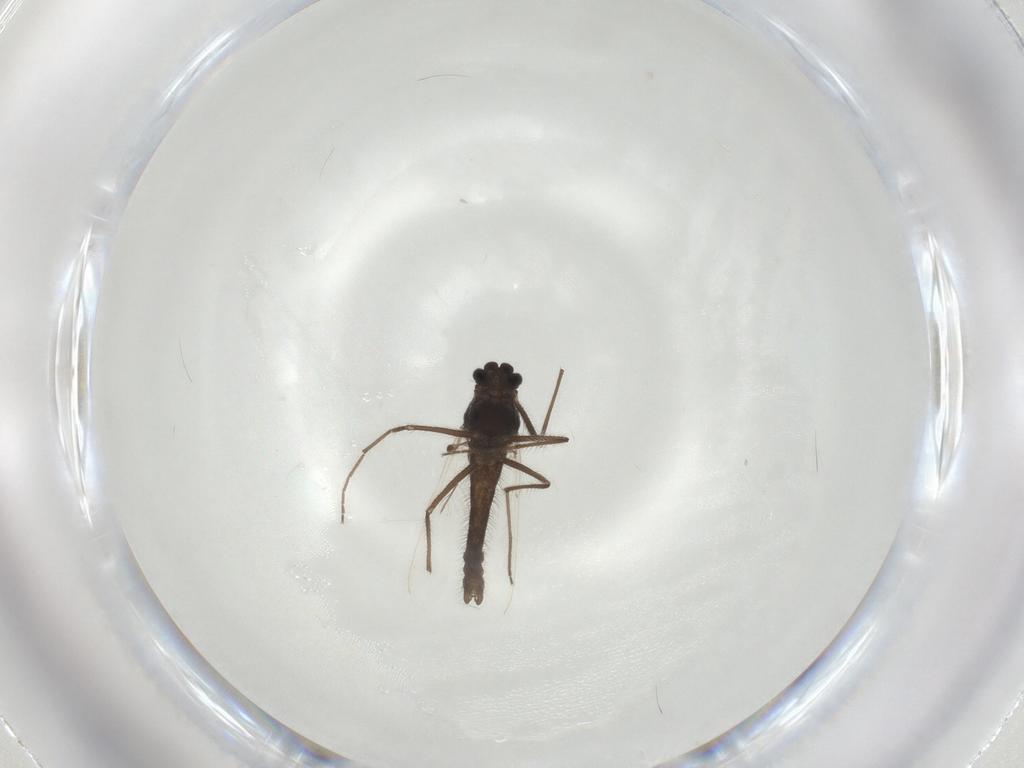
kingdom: Animalia
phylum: Arthropoda
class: Insecta
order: Diptera
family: Chironomidae
